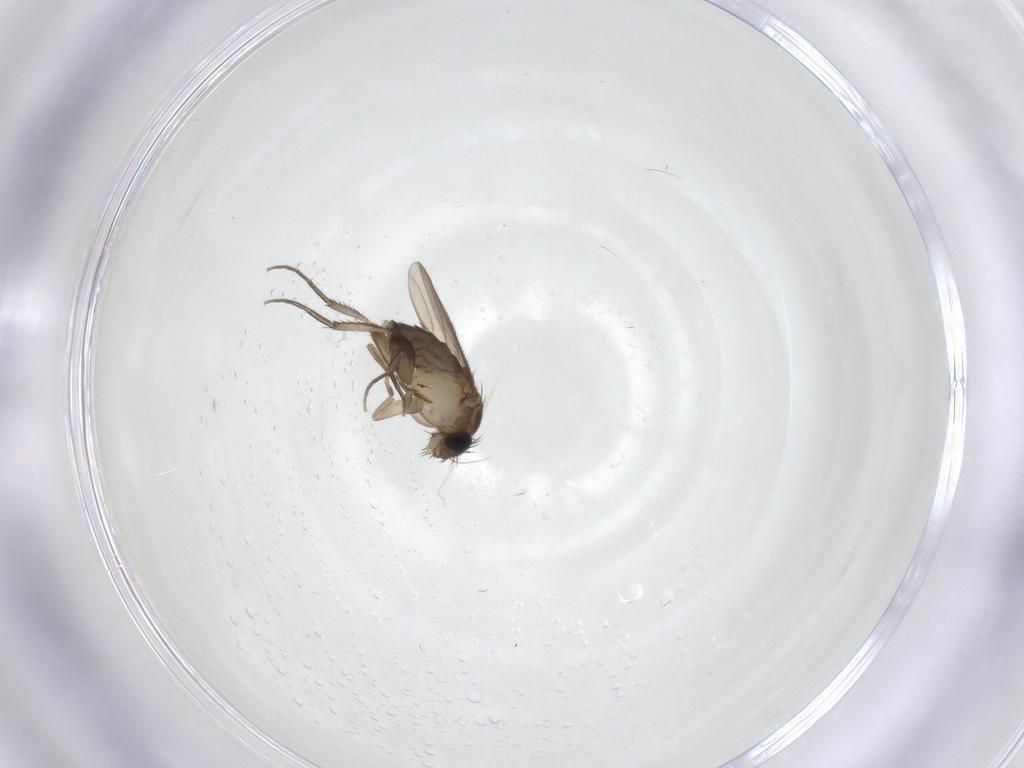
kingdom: Animalia
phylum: Arthropoda
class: Insecta
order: Diptera
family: Phoridae
